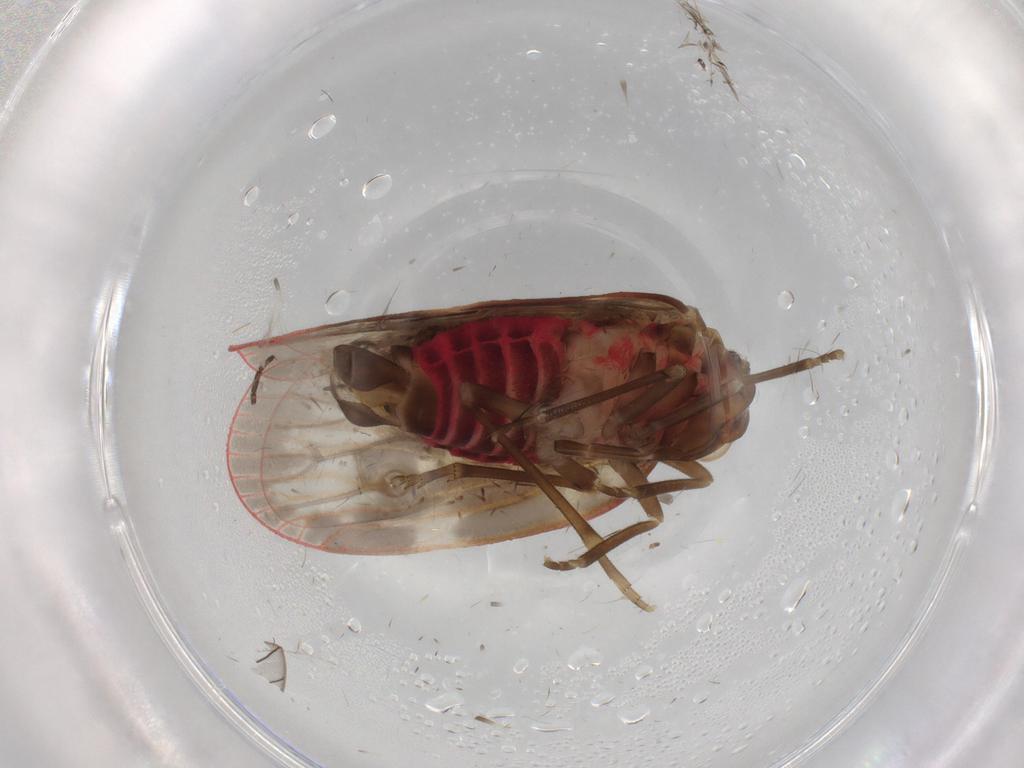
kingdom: Animalia
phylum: Arthropoda
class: Insecta
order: Hemiptera
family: Achilidae
